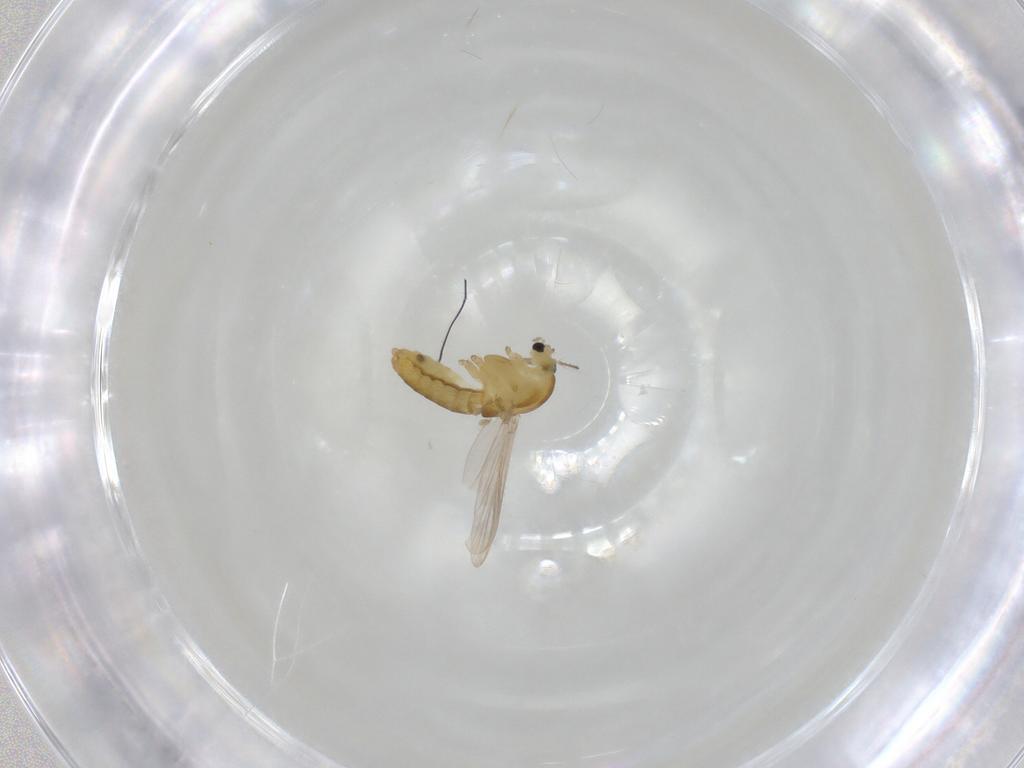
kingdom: Animalia
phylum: Arthropoda
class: Insecta
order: Diptera
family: Chironomidae
